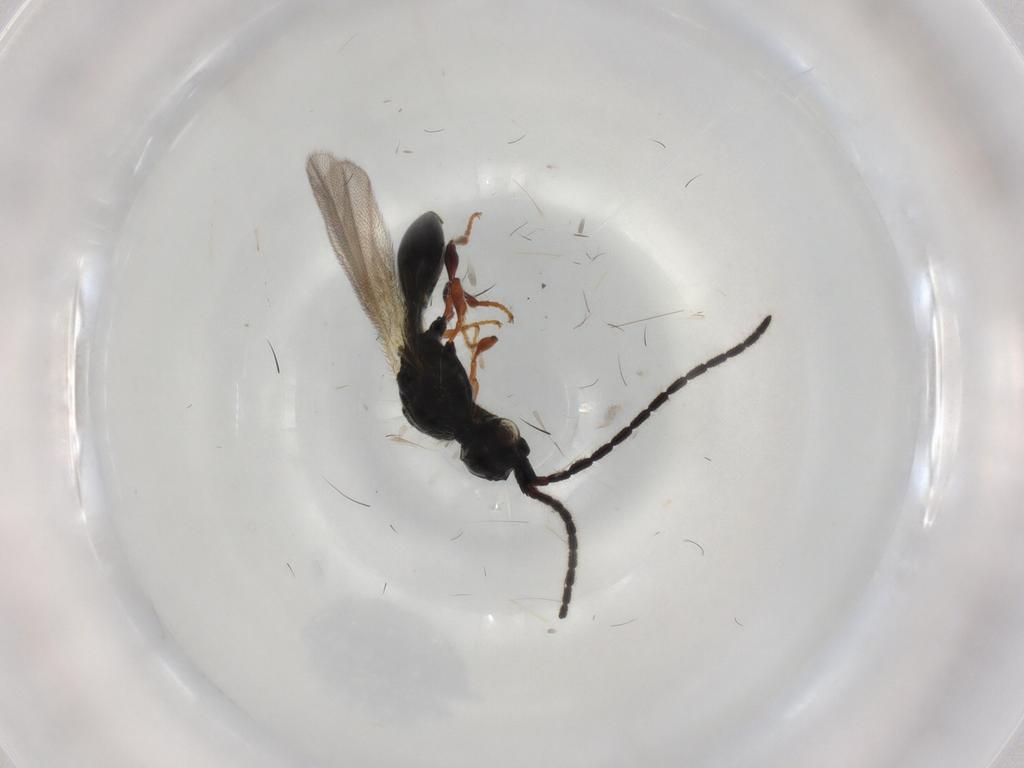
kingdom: Animalia
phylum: Arthropoda
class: Insecta
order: Hymenoptera
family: Diapriidae
